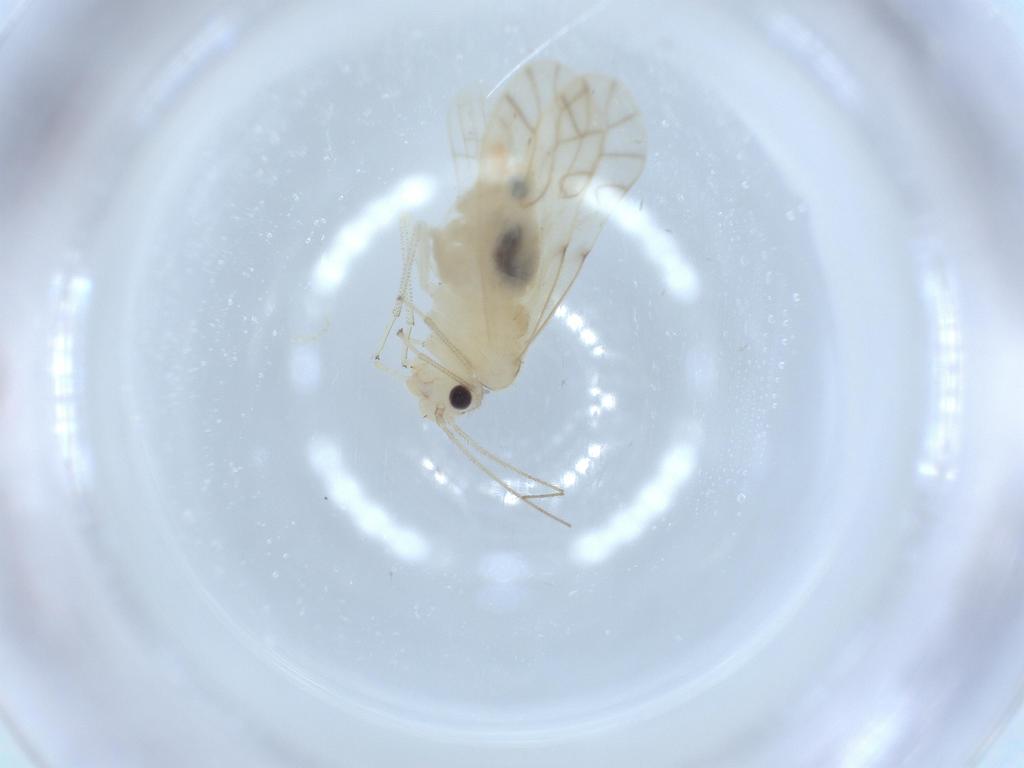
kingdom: Animalia
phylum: Arthropoda
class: Insecta
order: Psocodea
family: Caeciliusidae
